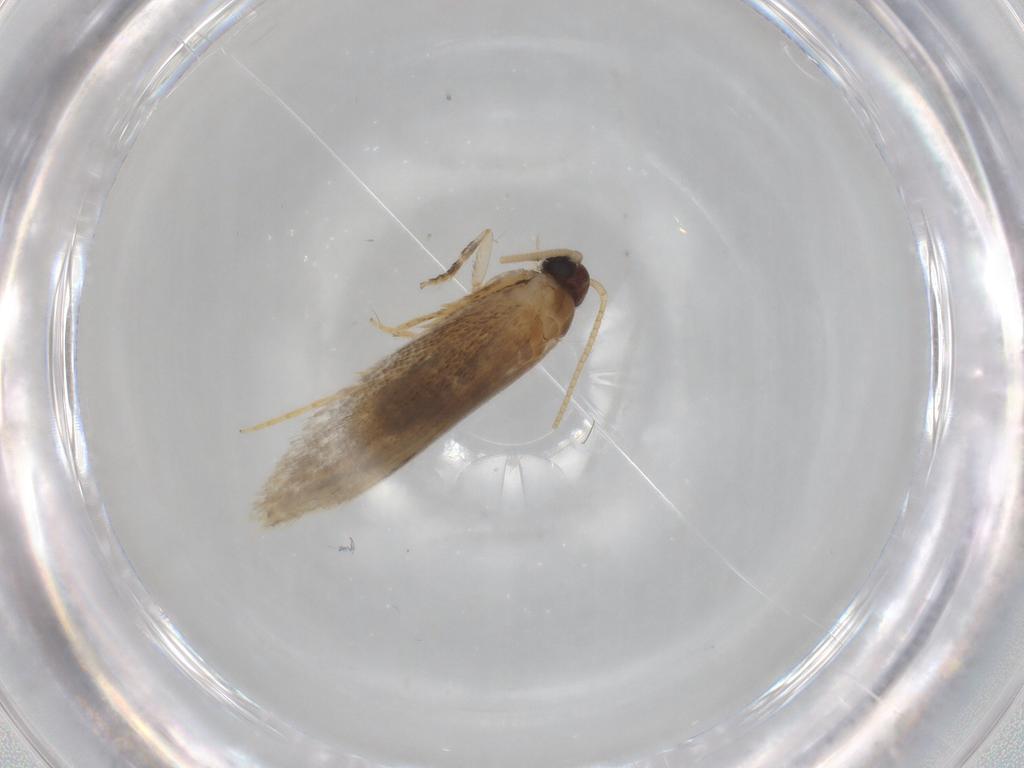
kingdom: Animalia
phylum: Arthropoda
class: Insecta
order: Lepidoptera
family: Tineidae
